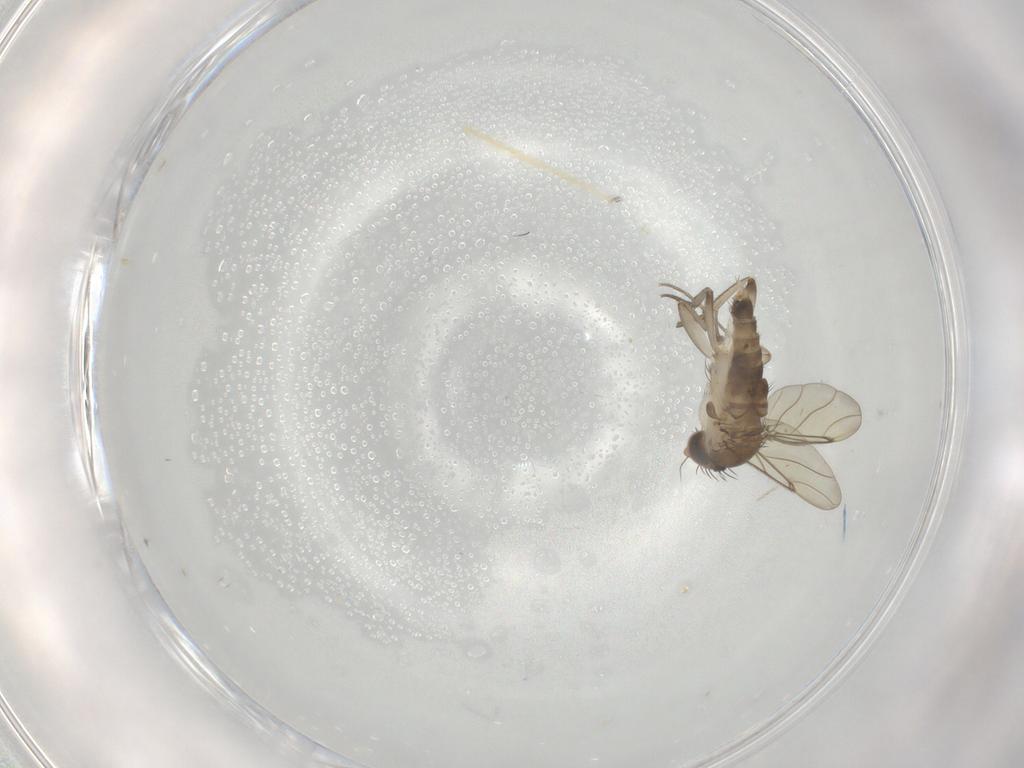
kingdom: Animalia
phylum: Arthropoda
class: Insecta
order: Diptera
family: Chironomidae
